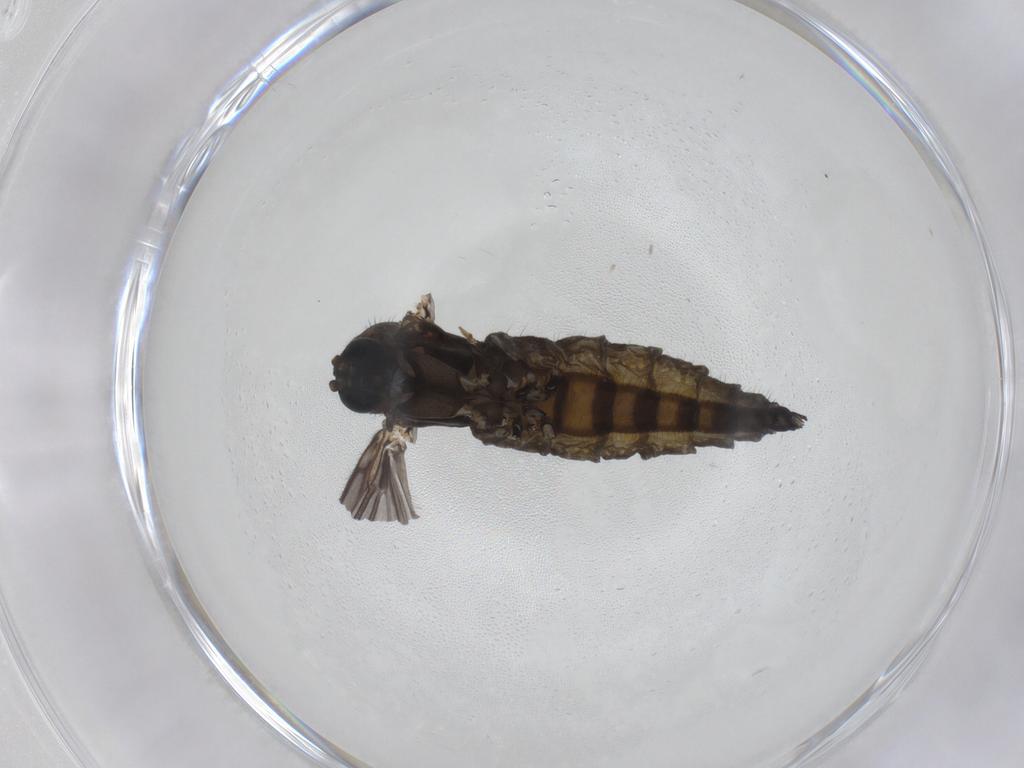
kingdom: Animalia
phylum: Arthropoda
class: Insecta
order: Diptera
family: Sciaridae
